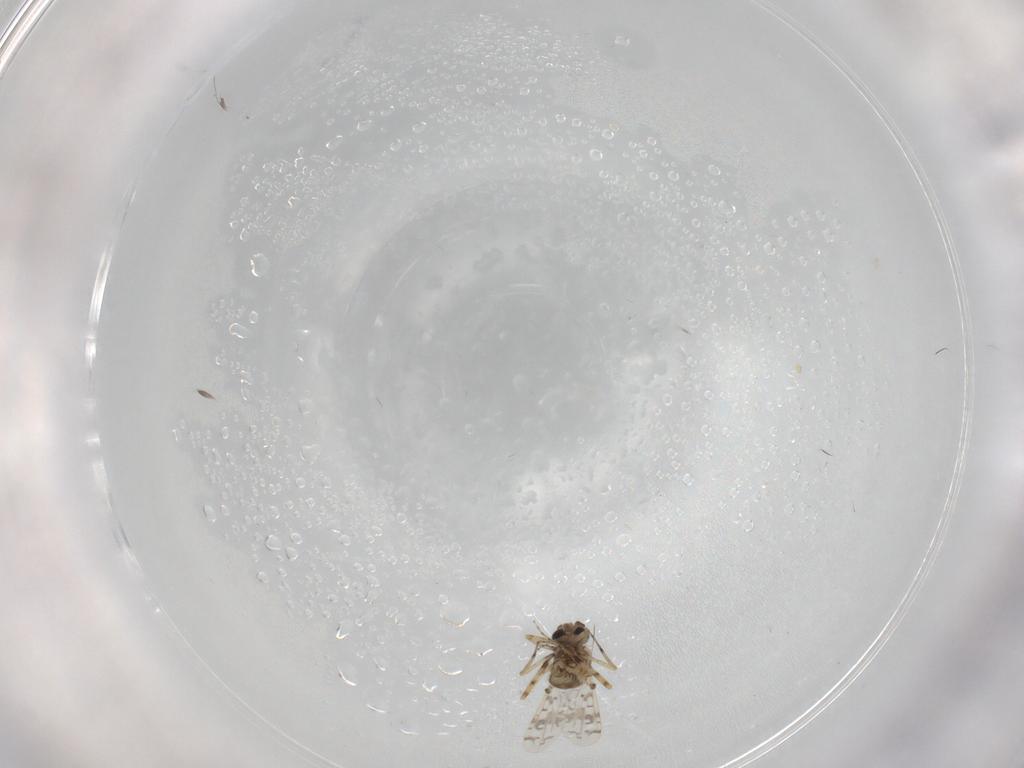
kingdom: Animalia
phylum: Arthropoda
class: Insecta
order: Diptera
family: Ceratopogonidae
